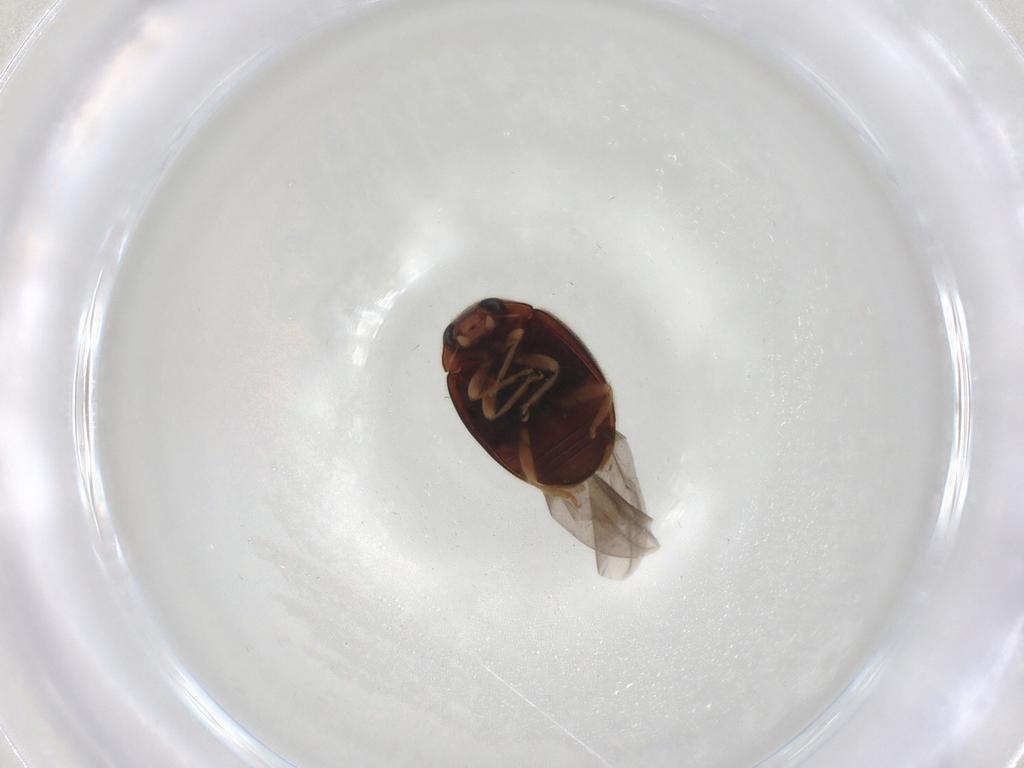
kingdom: Animalia
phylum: Arthropoda
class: Insecta
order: Coleoptera
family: Coccinellidae
